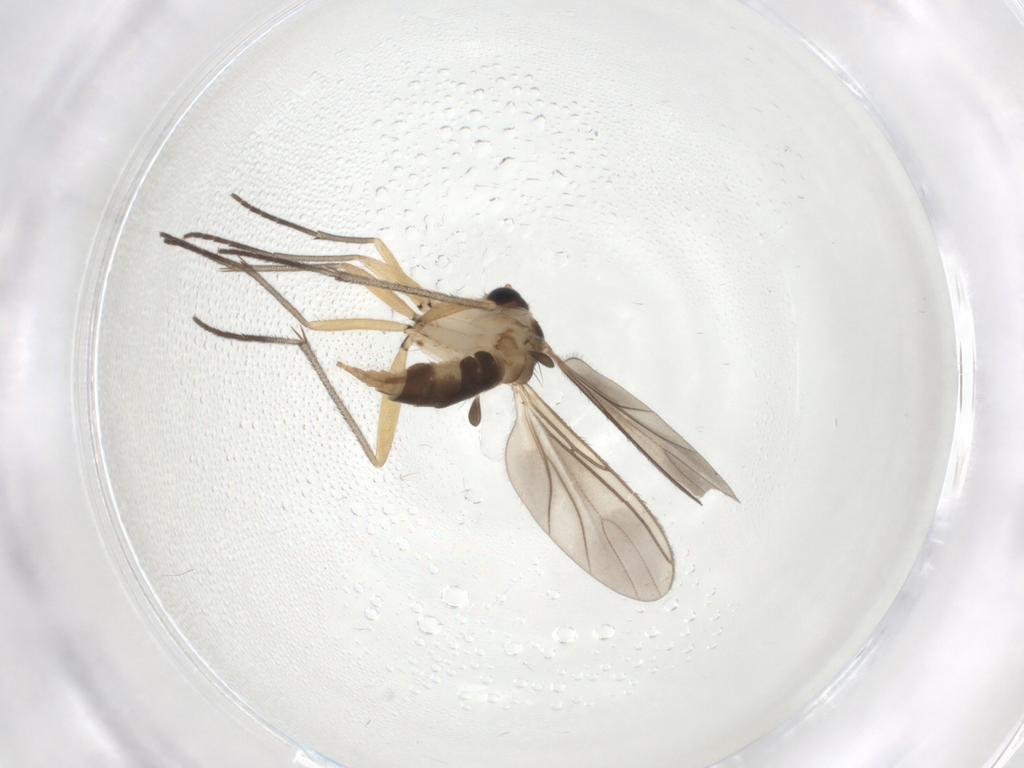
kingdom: Animalia
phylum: Arthropoda
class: Insecta
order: Diptera
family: Sciaridae
